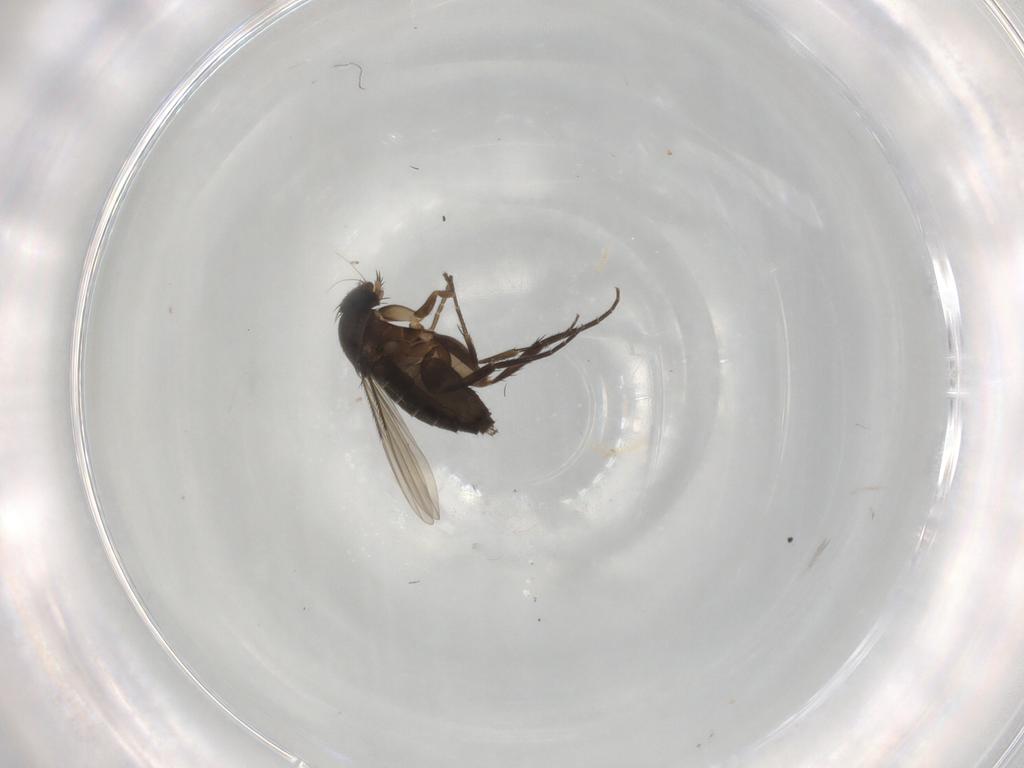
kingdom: Animalia
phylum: Arthropoda
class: Insecta
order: Diptera
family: Phoridae
